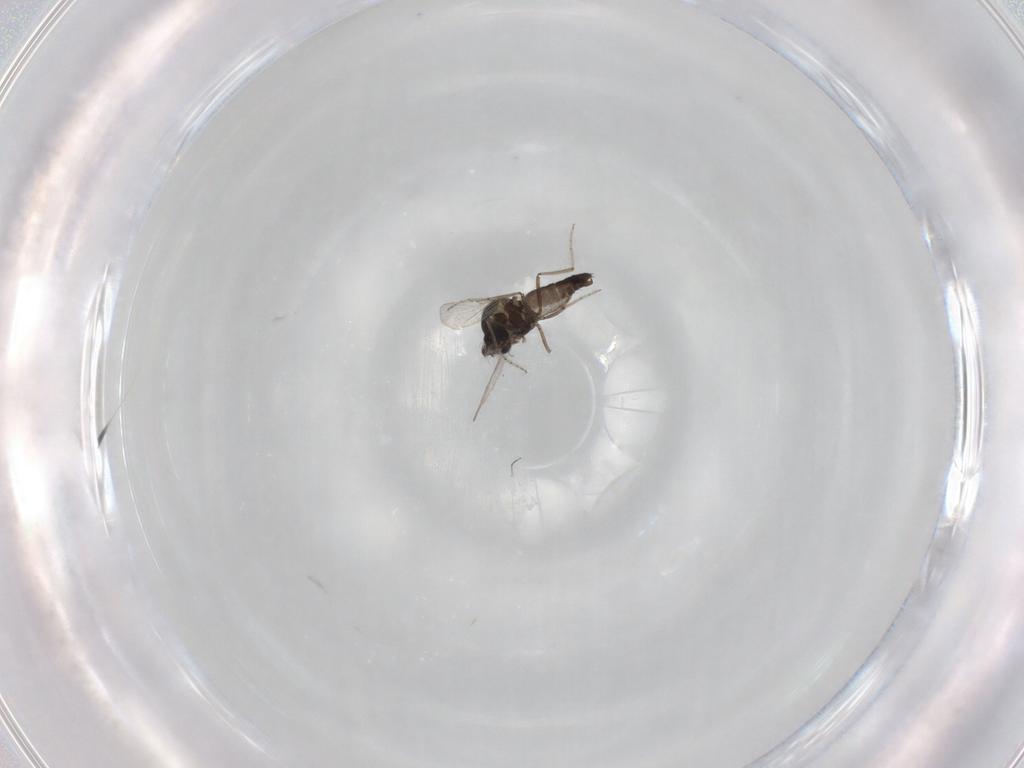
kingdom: Animalia
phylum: Arthropoda
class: Insecta
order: Diptera
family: Ceratopogonidae
